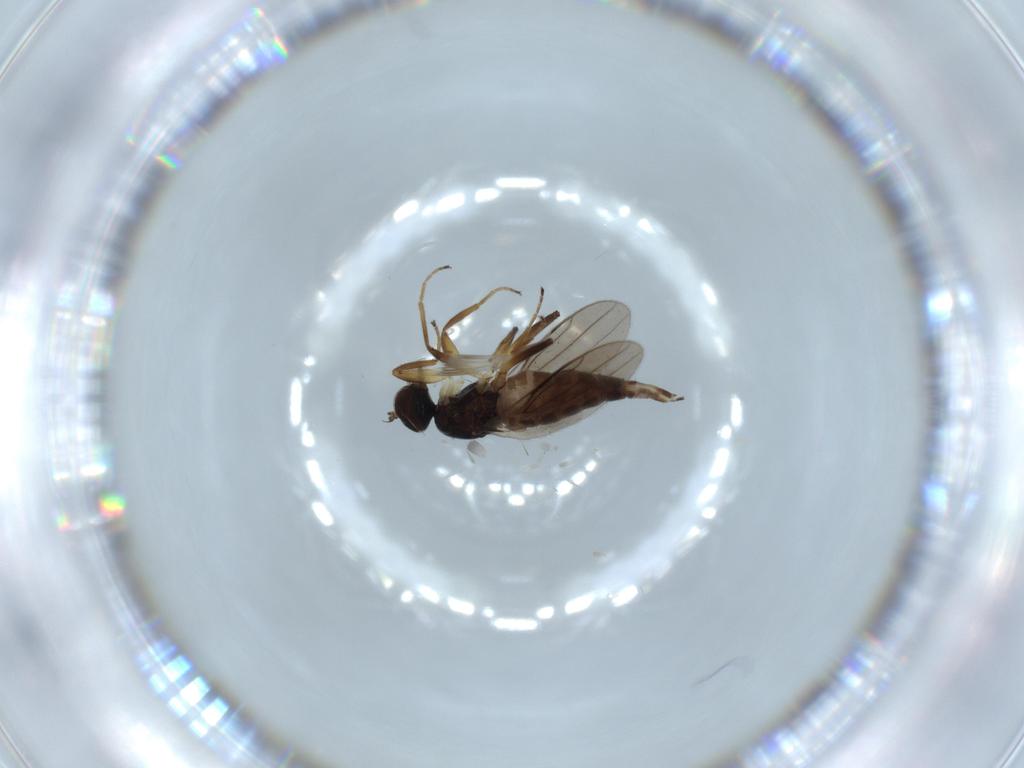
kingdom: Animalia
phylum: Arthropoda
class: Insecta
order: Diptera
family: Hybotidae
